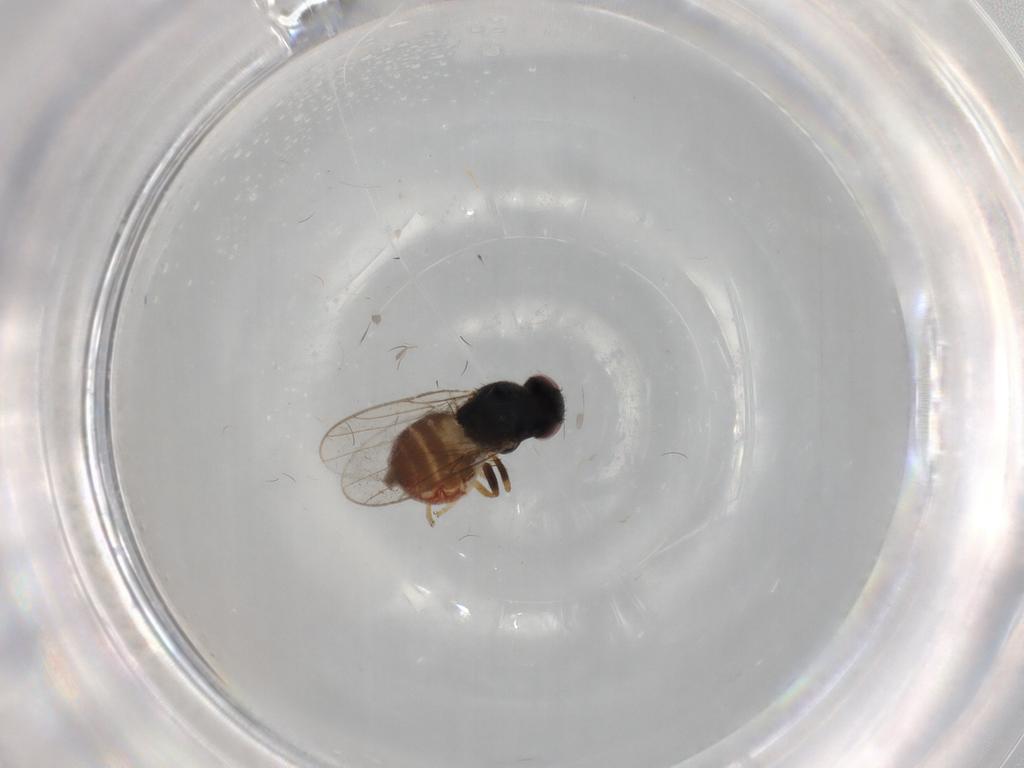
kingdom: Animalia
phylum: Arthropoda
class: Insecta
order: Diptera
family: Chloropidae
